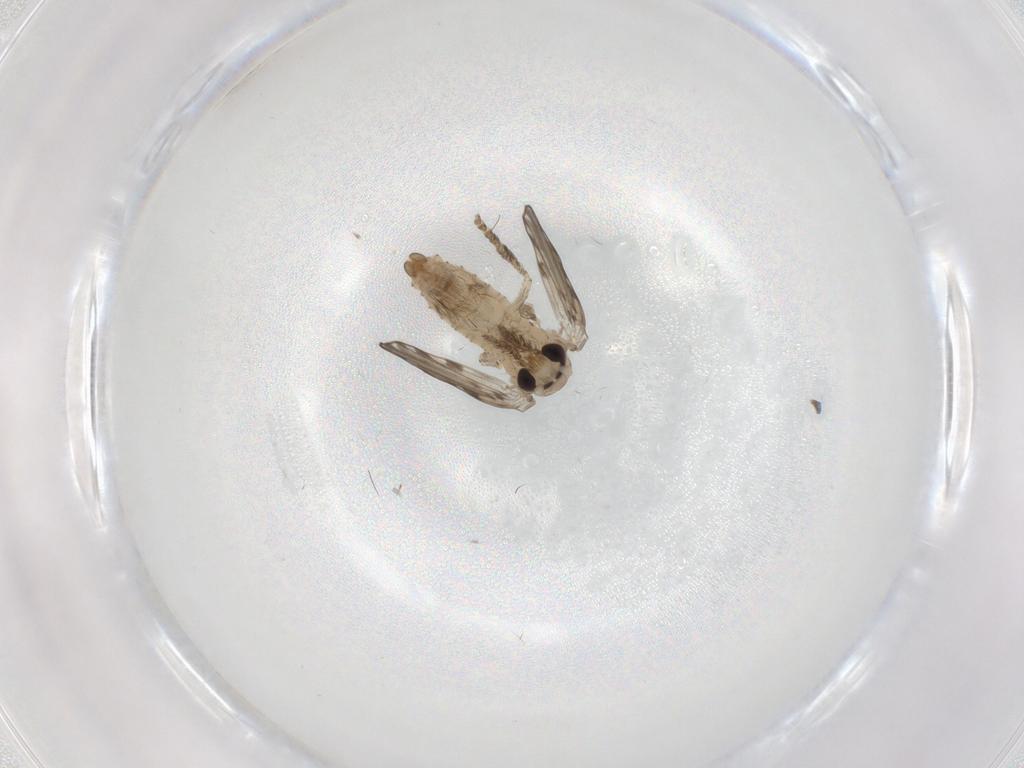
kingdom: Animalia
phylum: Arthropoda
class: Insecta
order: Diptera
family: Psychodidae
